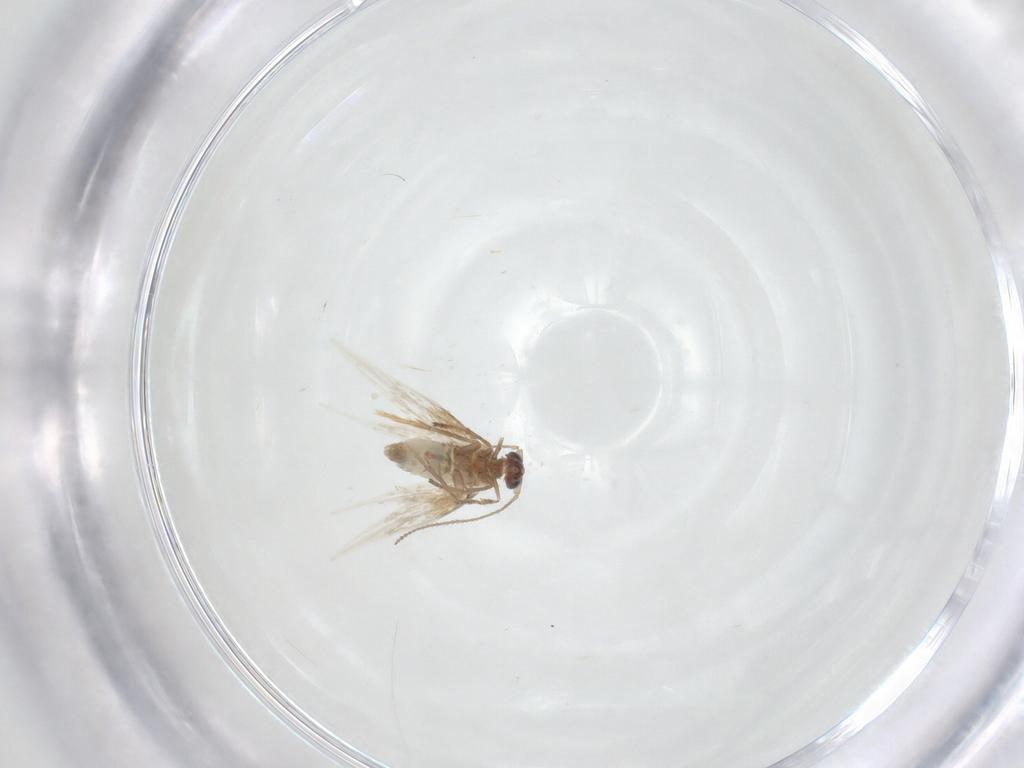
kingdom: Animalia
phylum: Arthropoda
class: Insecta
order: Lepidoptera
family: Nepticulidae
